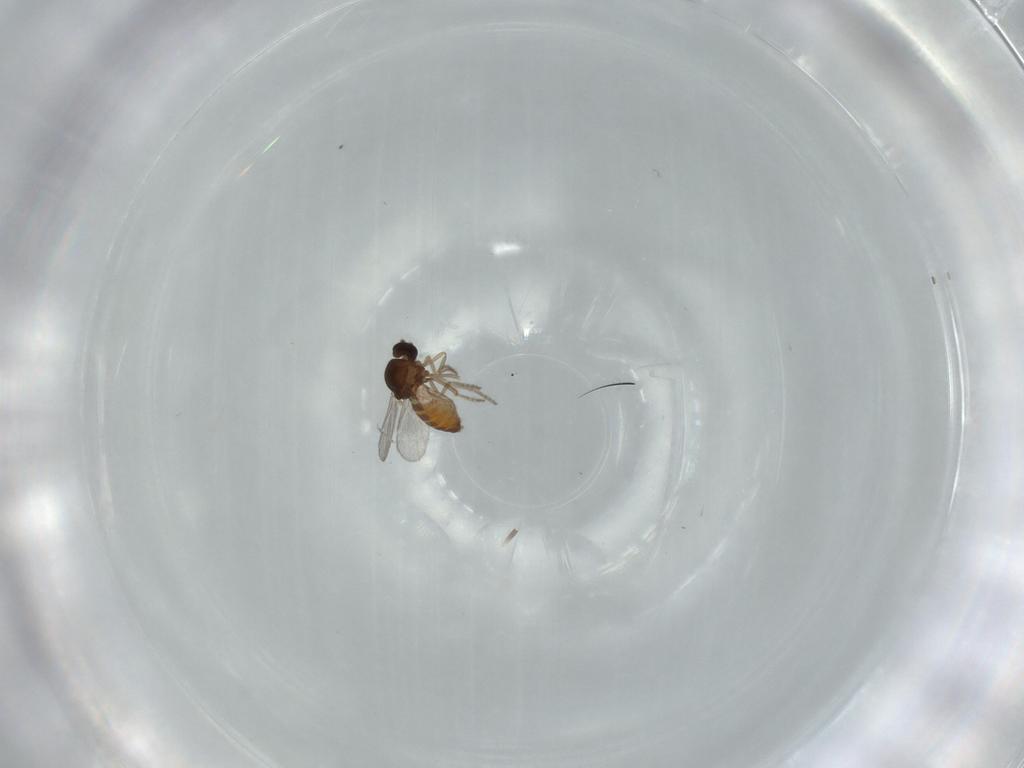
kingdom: Animalia
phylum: Arthropoda
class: Insecta
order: Diptera
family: Ceratopogonidae
